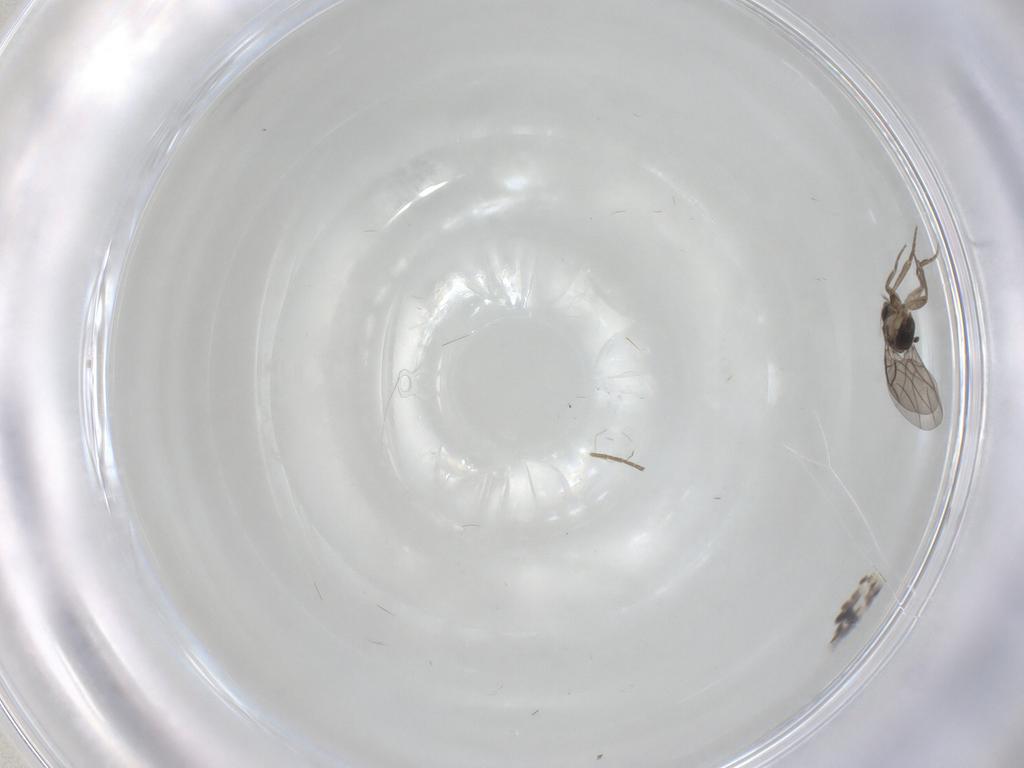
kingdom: Animalia
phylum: Arthropoda
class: Insecta
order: Diptera
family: Phoridae
